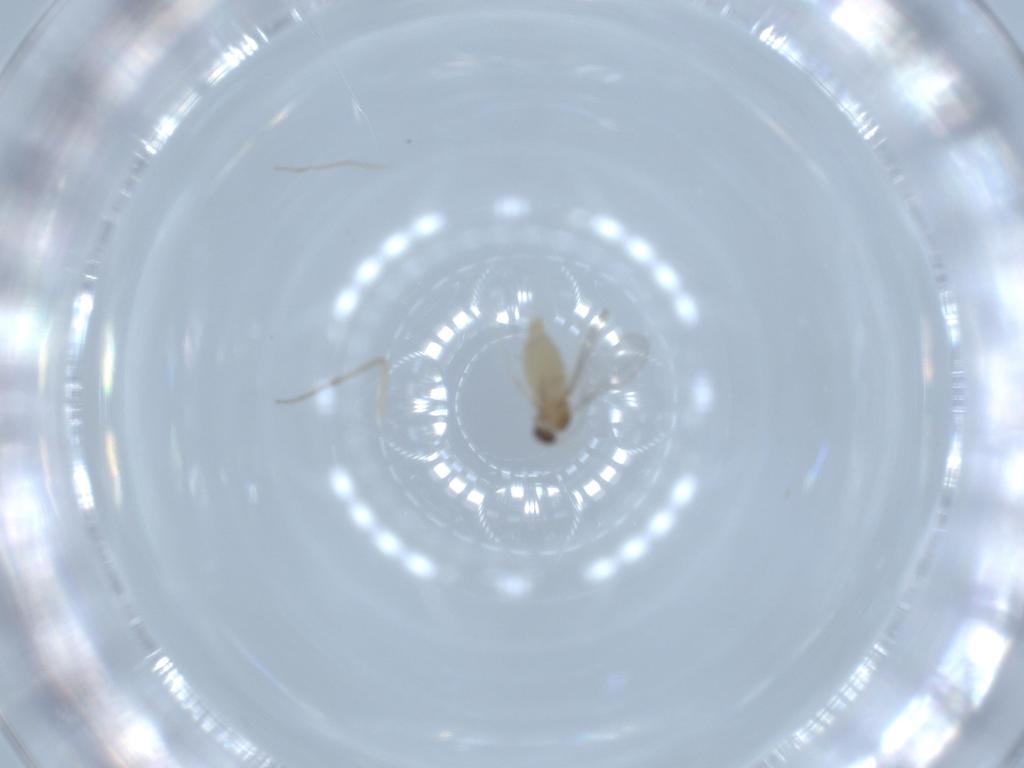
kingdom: Animalia
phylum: Arthropoda
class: Insecta
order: Diptera
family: Cecidomyiidae
